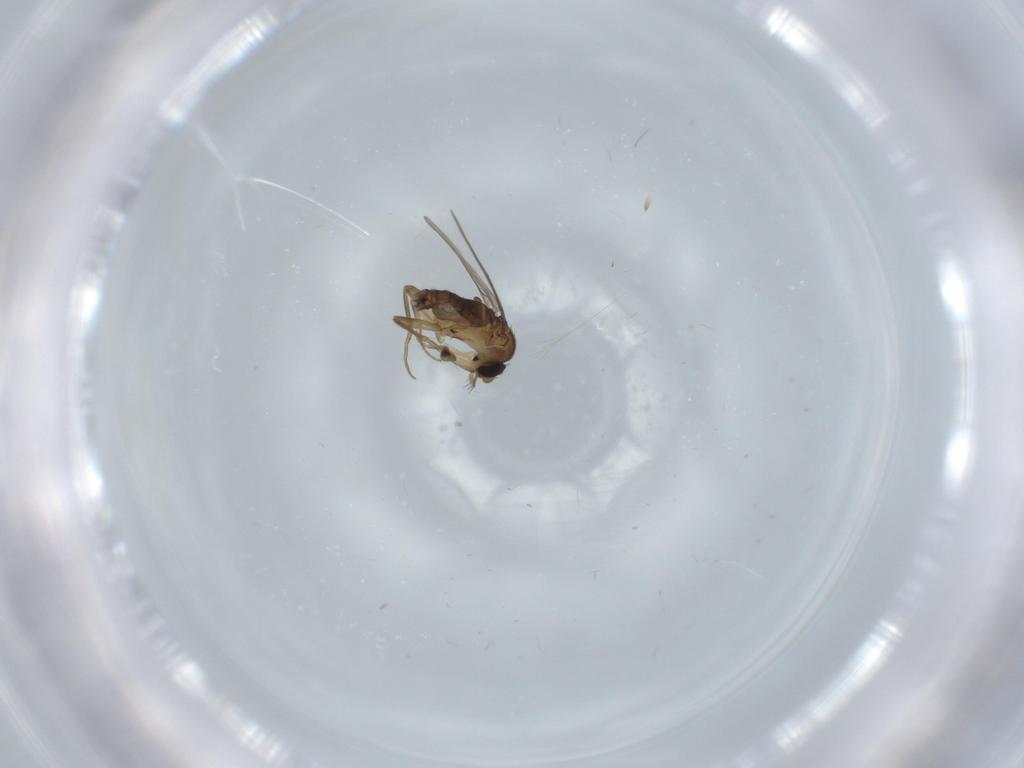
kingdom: Animalia
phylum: Arthropoda
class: Insecta
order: Diptera
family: Phoridae
